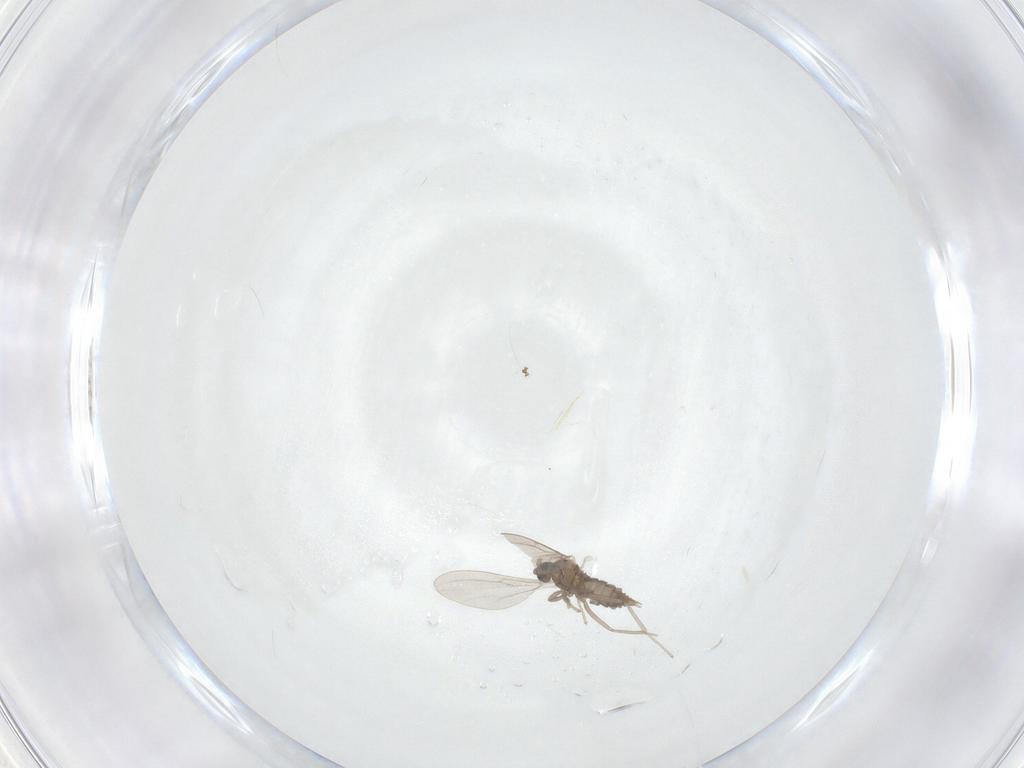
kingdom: Animalia
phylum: Arthropoda
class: Insecta
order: Diptera
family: Cecidomyiidae
